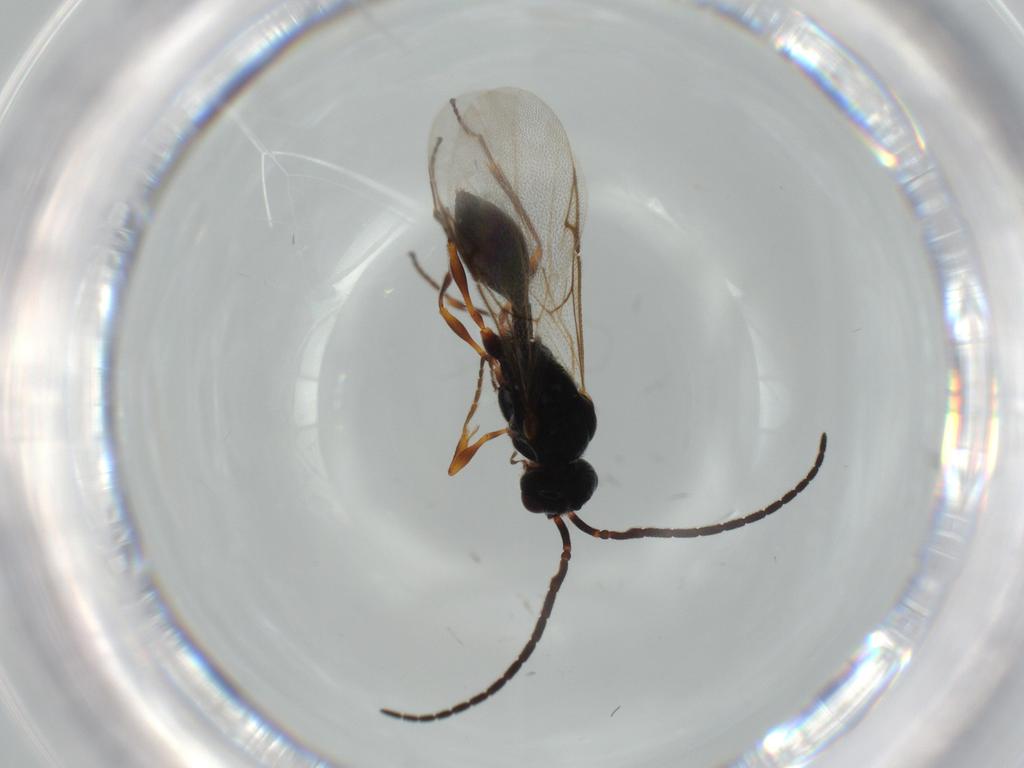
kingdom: Animalia
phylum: Arthropoda
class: Insecta
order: Hymenoptera
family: Diapriidae
